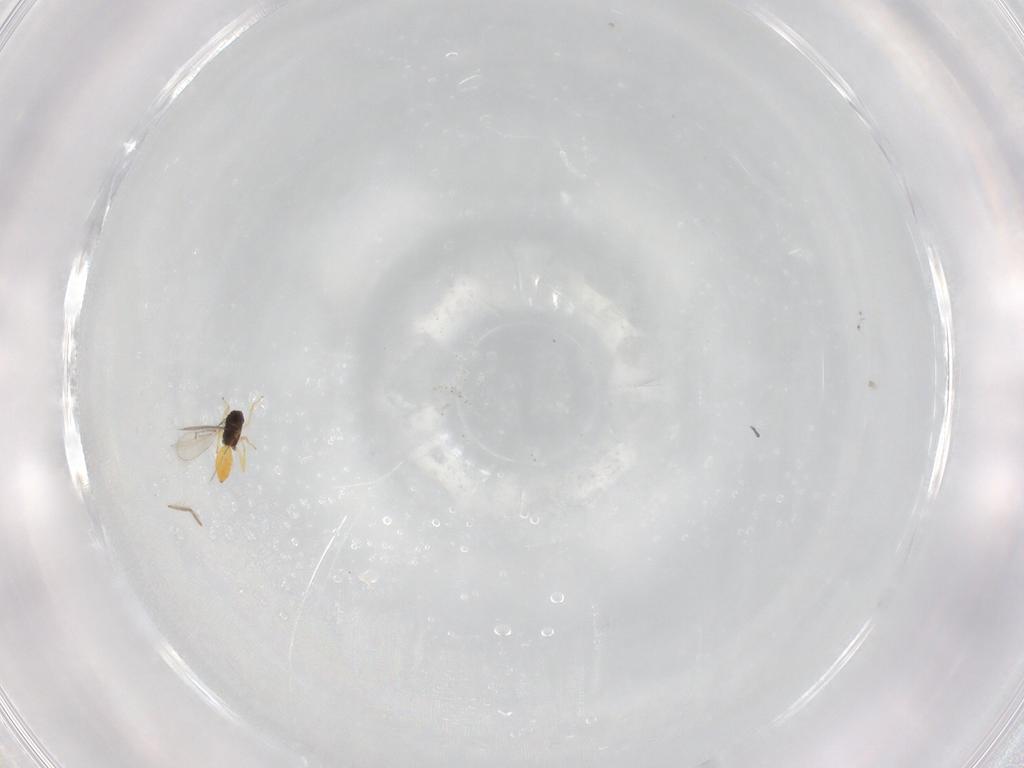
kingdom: Animalia
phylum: Arthropoda
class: Insecta
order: Hymenoptera
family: Eulophidae
